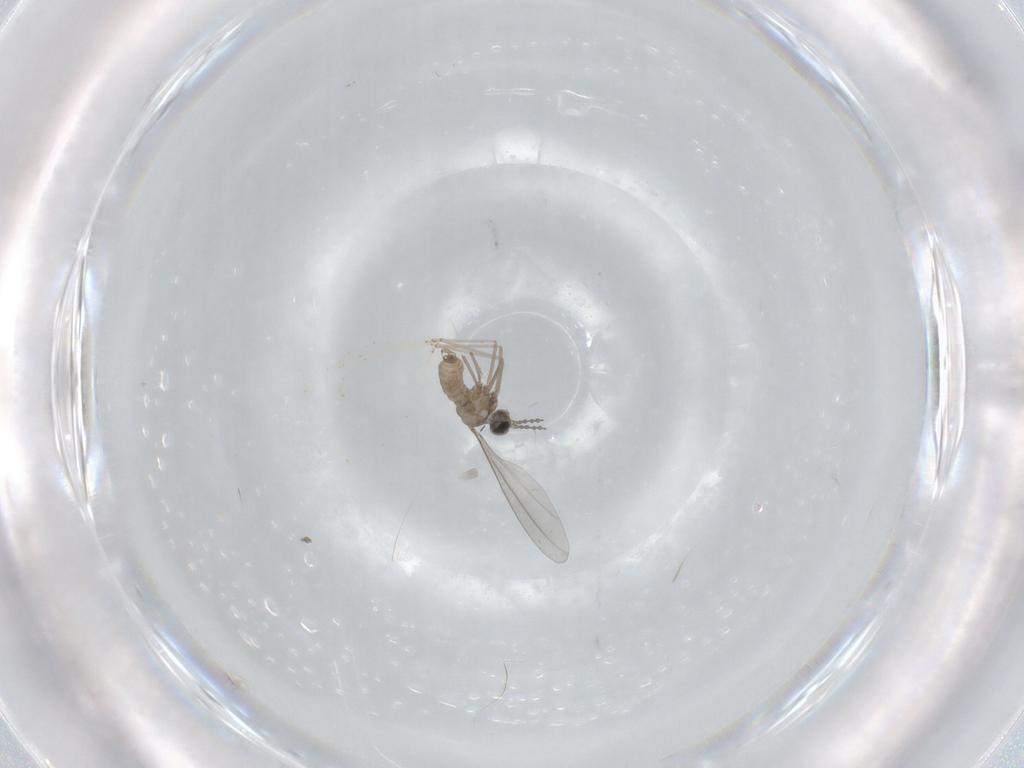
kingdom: Animalia
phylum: Arthropoda
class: Insecta
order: Diptera
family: Cecidomyiidae
